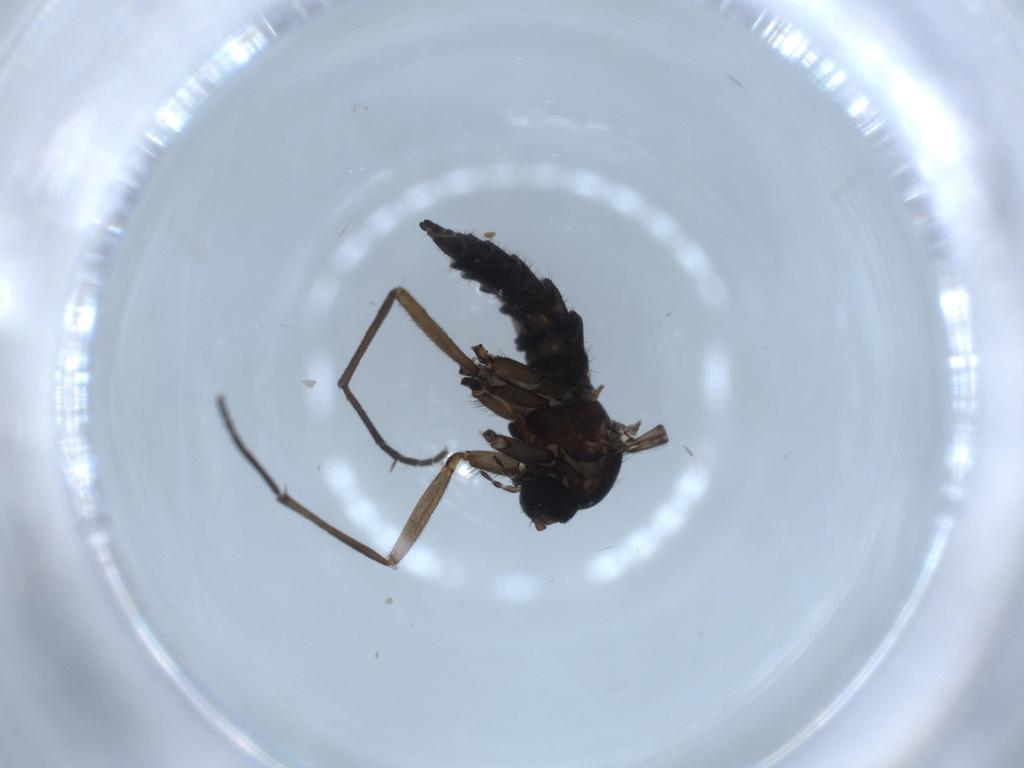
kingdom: Animalia
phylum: Arthropoda
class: Insecta
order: Diptera
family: Sciaridae
